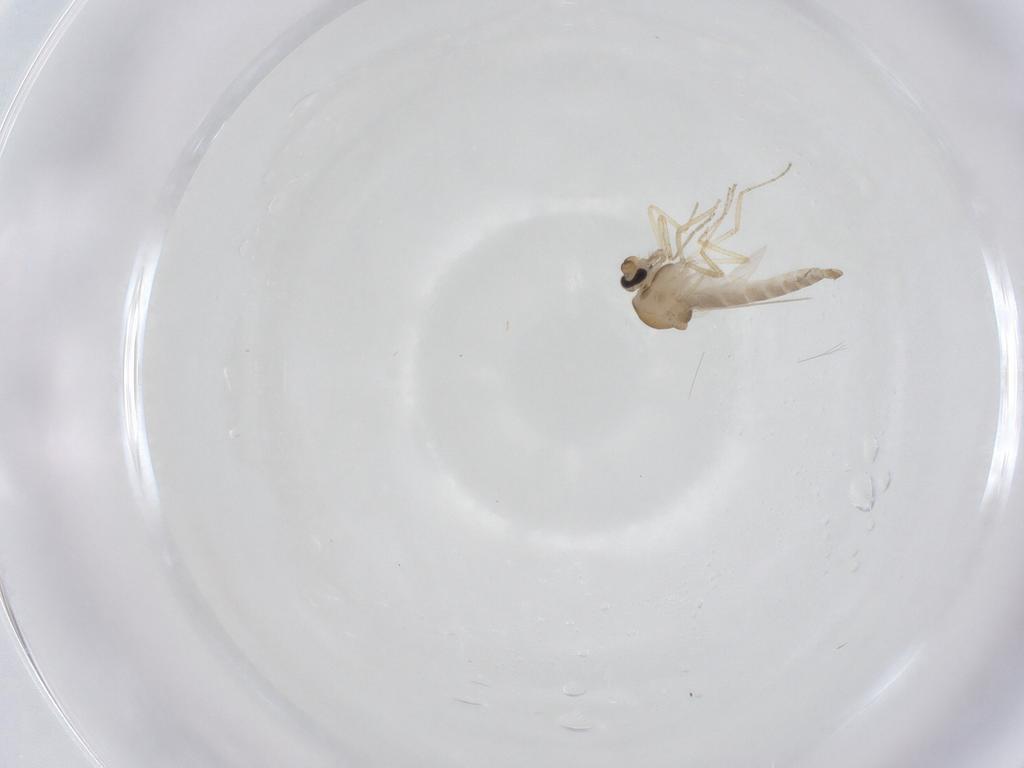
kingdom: Animalia
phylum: Arthropoda
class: Insecta
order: Diptera
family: Ceratopogonidae
